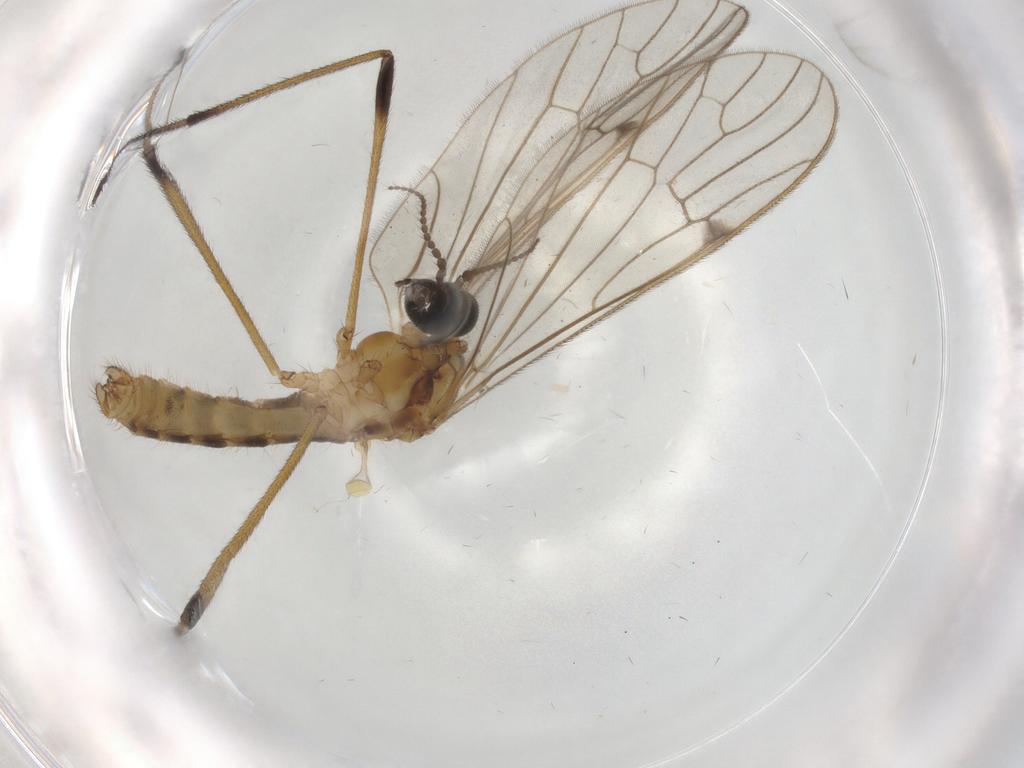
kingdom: Animalia
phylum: Arthropoda
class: Insecta
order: Diptera
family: Limoniidae
